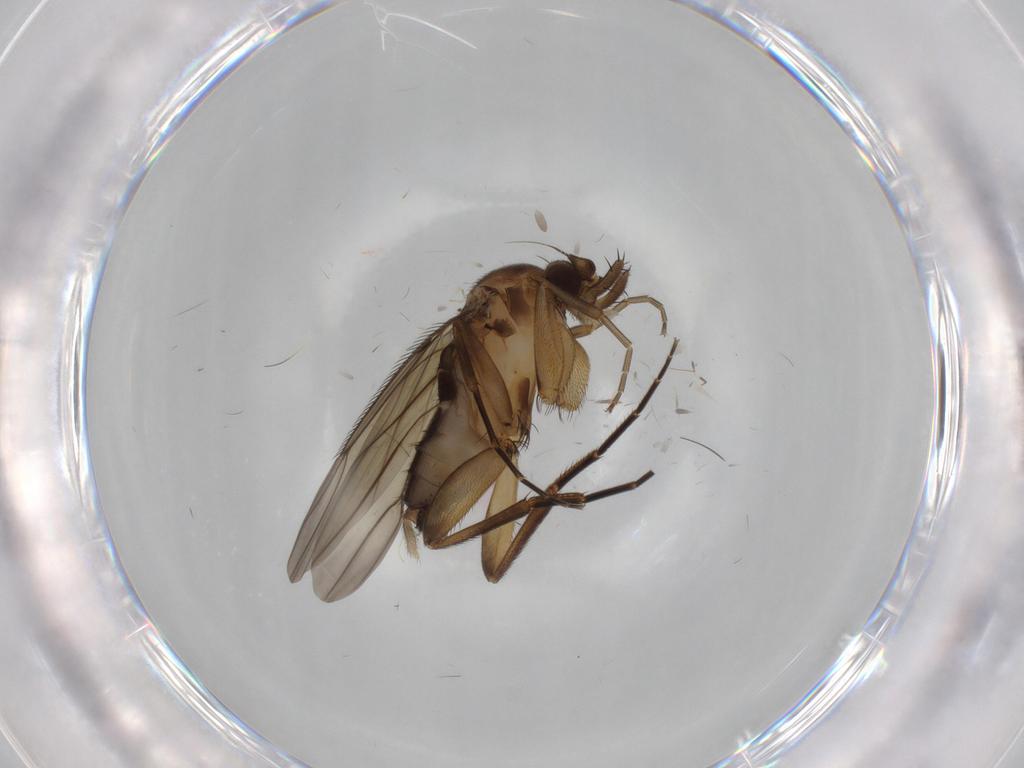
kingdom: Animalia
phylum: Arthropoda
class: Insecta
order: Diptera
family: Phoridae
